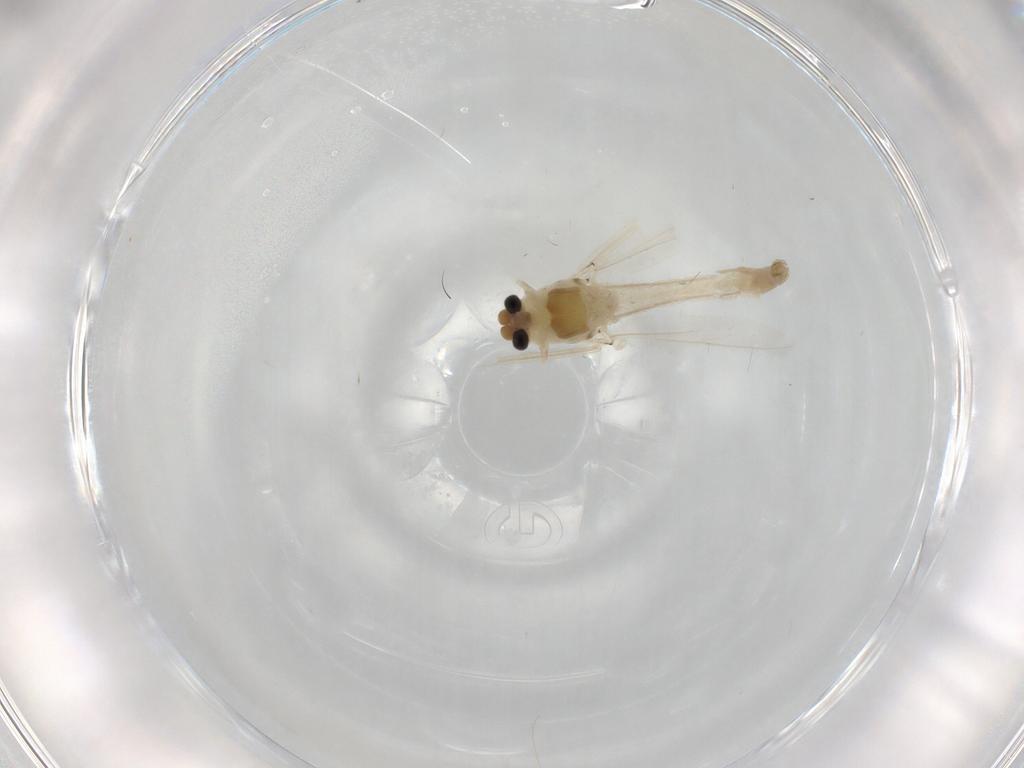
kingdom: Animalia
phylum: Arthropoda
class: Insecta
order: Diptera
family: Chironomidae
